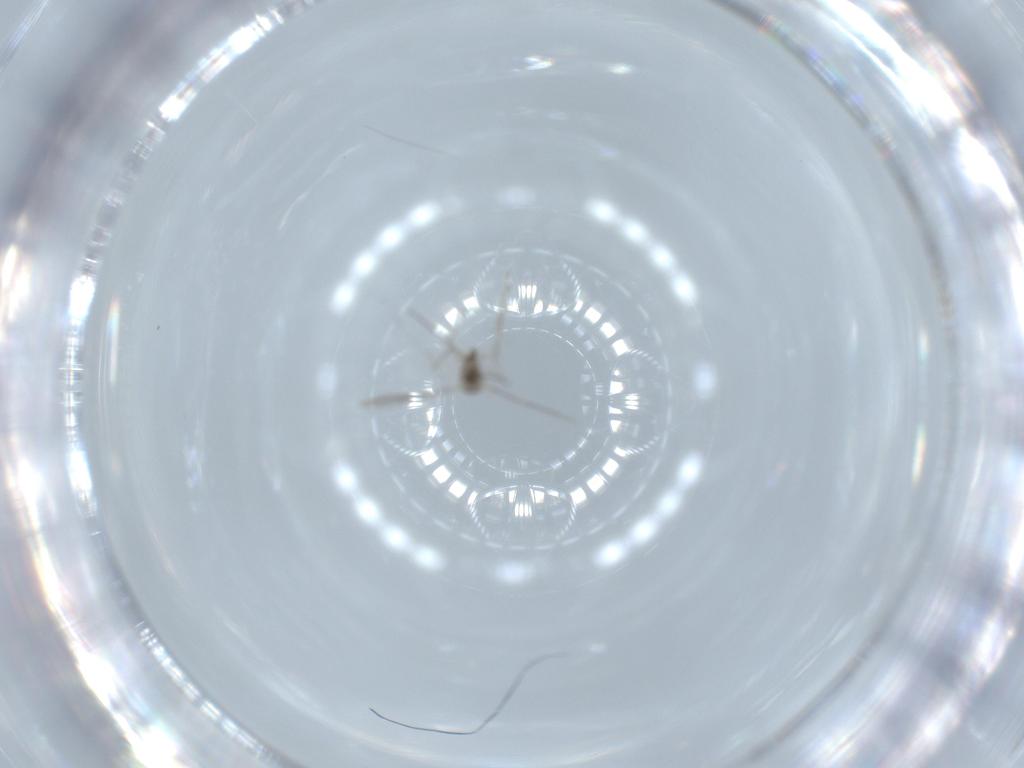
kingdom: Animalia
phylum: Arthropoda
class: Insecta
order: Diptera
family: Cecidomyiidae
